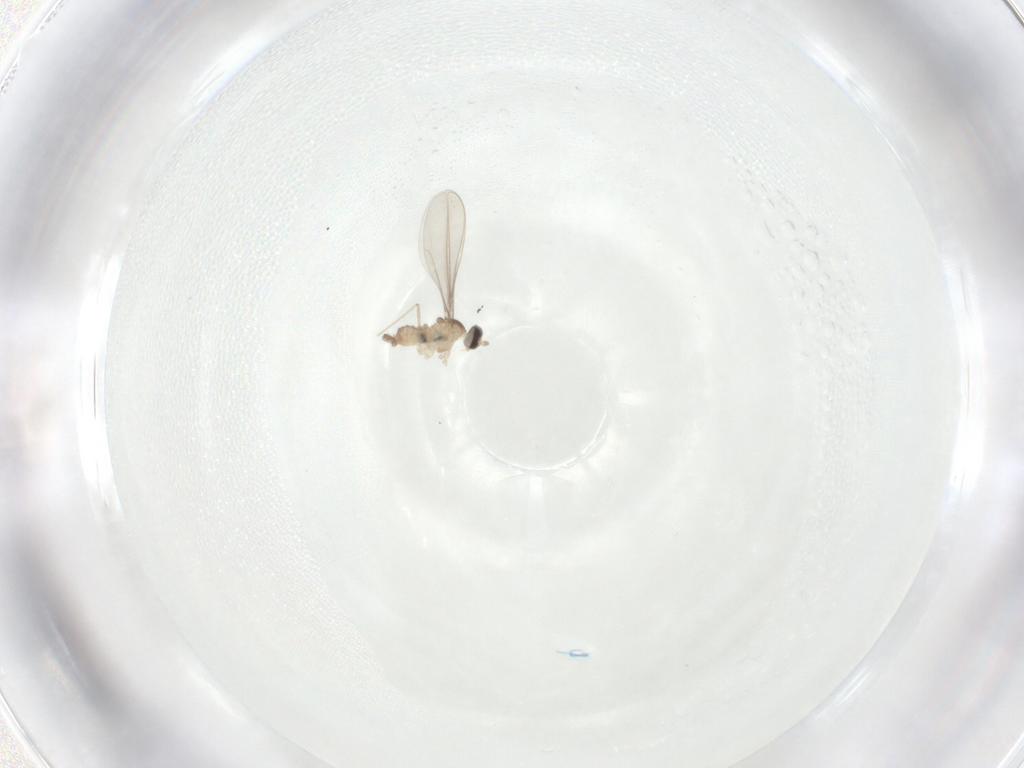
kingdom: Animalia
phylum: Arthropoda
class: Insecta
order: Diptera
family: Cecidomyiidae
